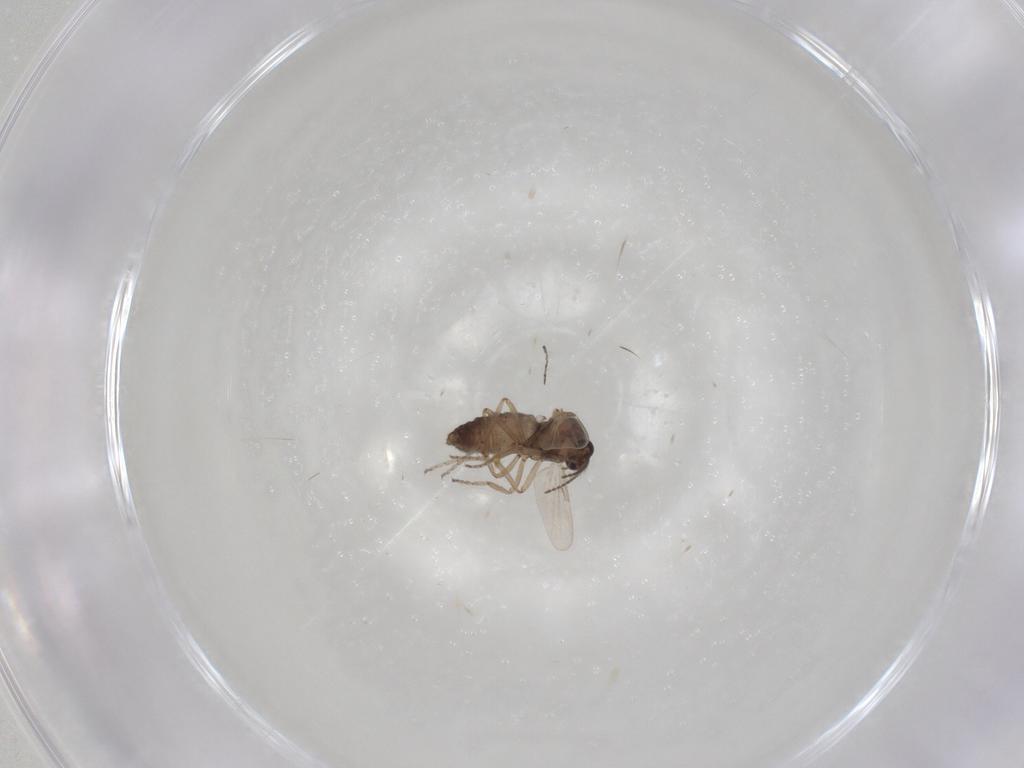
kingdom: Animalia
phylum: Arthropoda
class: Insecta
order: Diptera
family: Ceratopogonidae
